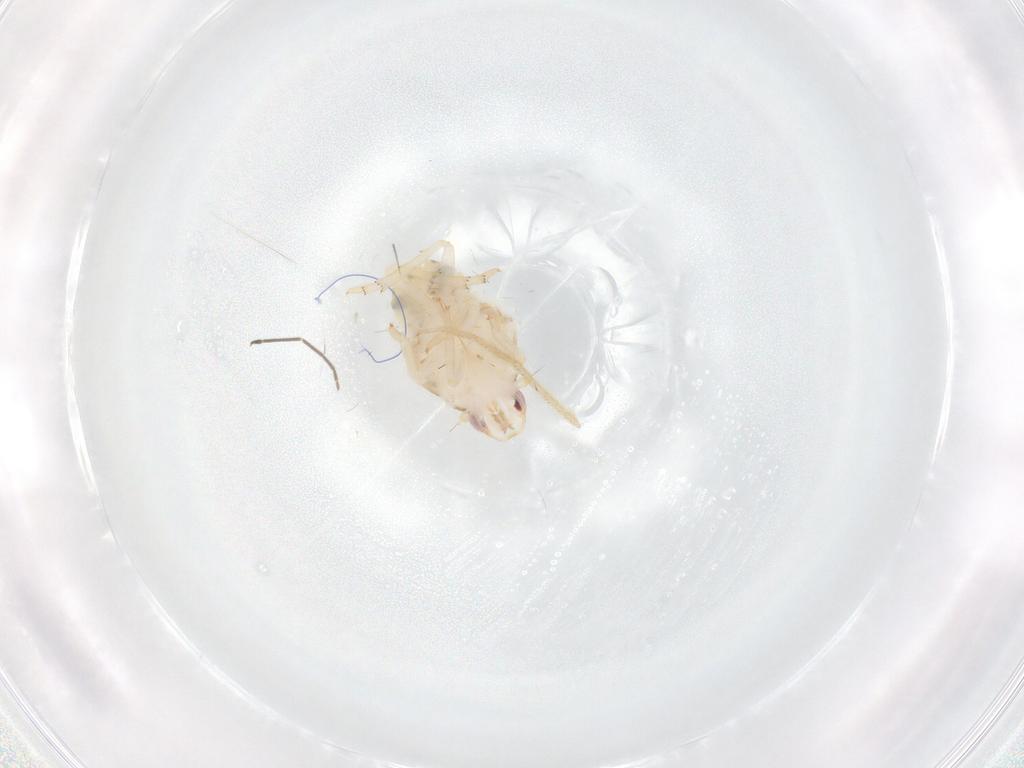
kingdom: Animalia
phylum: Arthropoda
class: Insecta
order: Hemiptera
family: Flatidae
